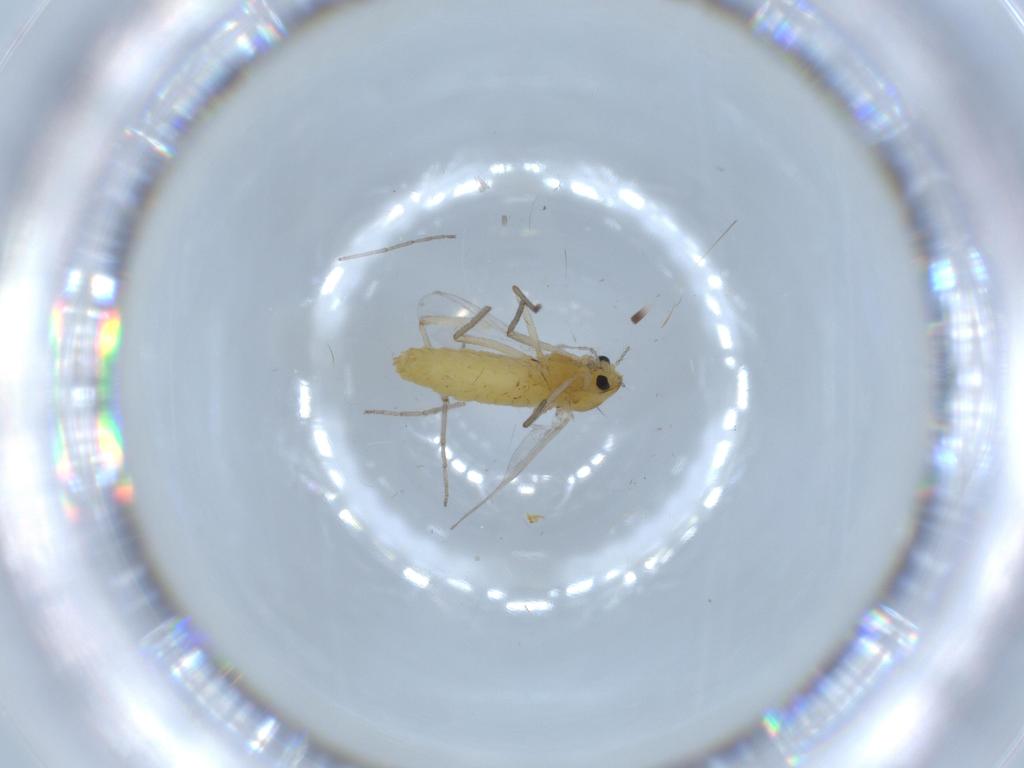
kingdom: Animalia
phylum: Arthropoda
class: Insecta
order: Diptera
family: Chironomidae
